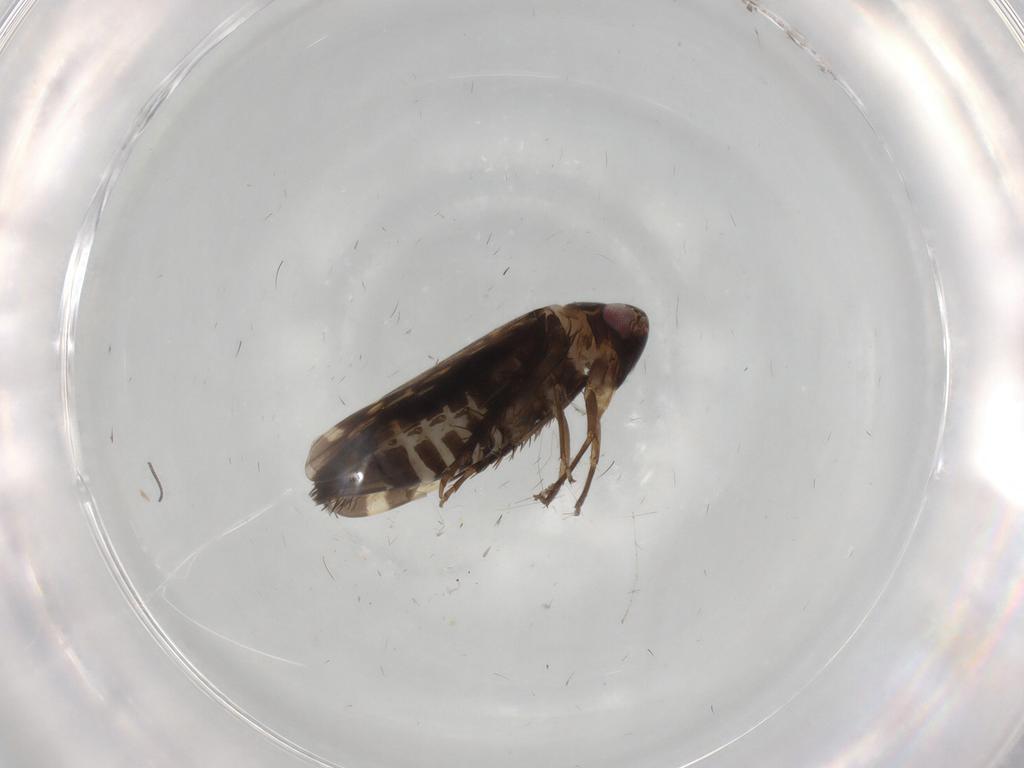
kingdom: Animalia
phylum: Arthropoda
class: Insecta
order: Hemiptera
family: Cicadellidae
